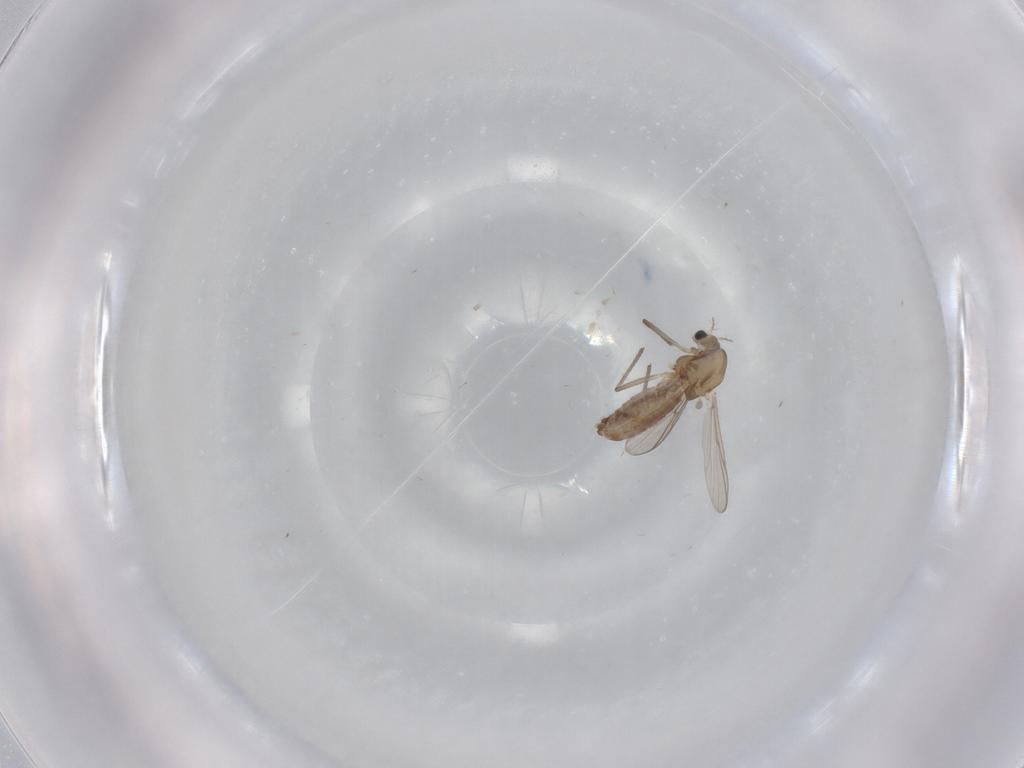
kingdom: Animalia
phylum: Arthropoda
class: Insecta
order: Diptera
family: Chironomidae
